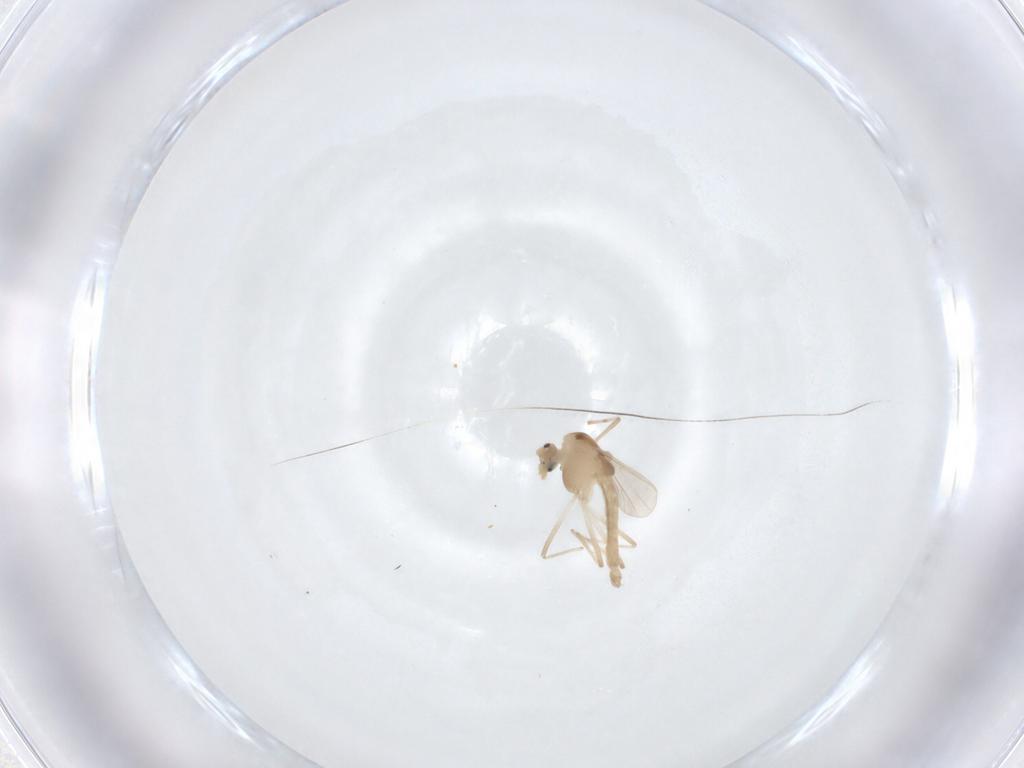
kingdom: Animalia
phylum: Arthropoda
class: Insecta
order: Diptera
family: Chironomidae
